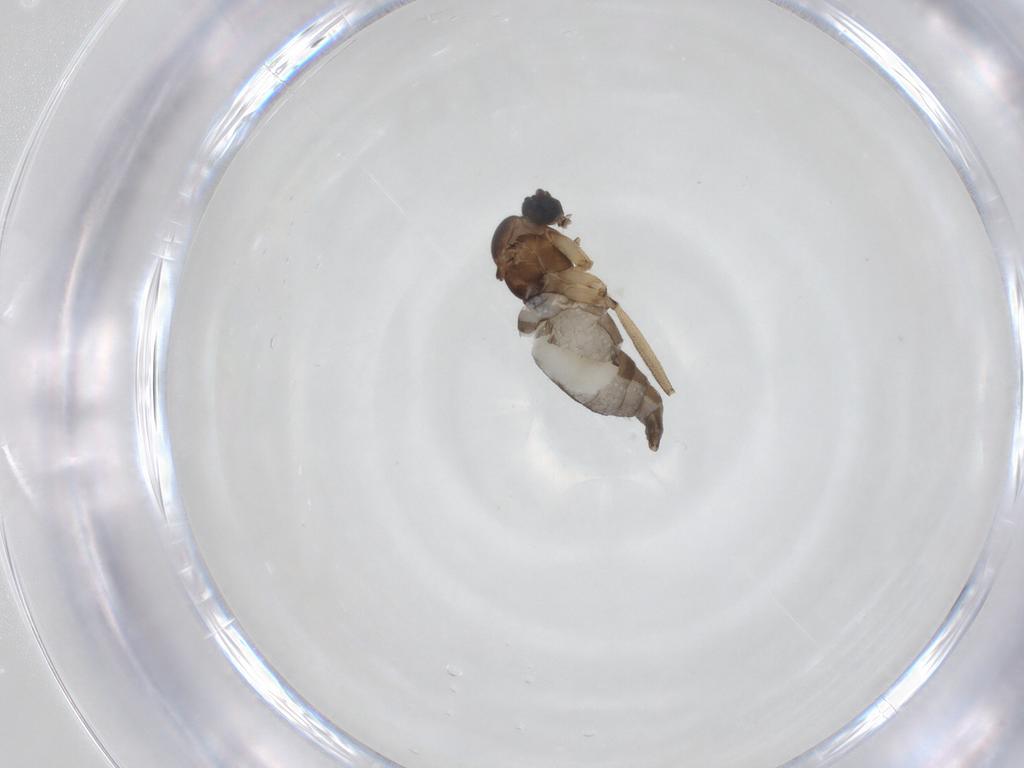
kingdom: Animalia
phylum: Arthropoda
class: Insecta
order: Diptera
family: Sciaridae
